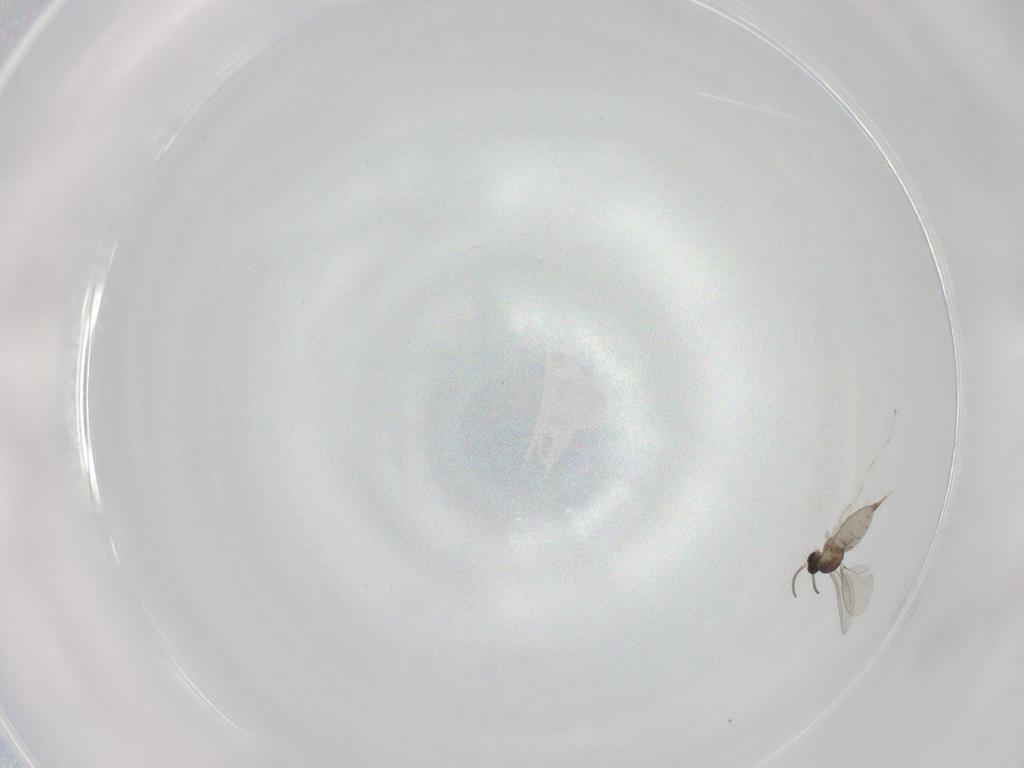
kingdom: Animalia
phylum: Arthropoda
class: Insecta
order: Diptera
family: Cecidomyiidae
